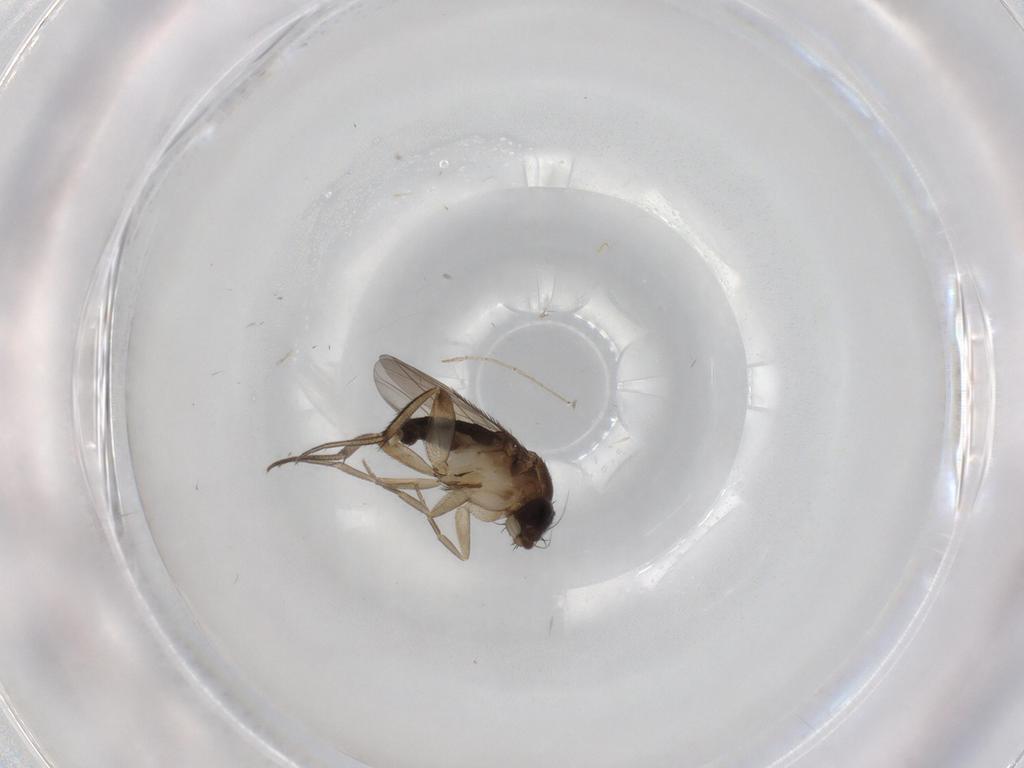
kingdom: Animalia
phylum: Arthropoda
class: Insecta
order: Diptera
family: Phoridae
